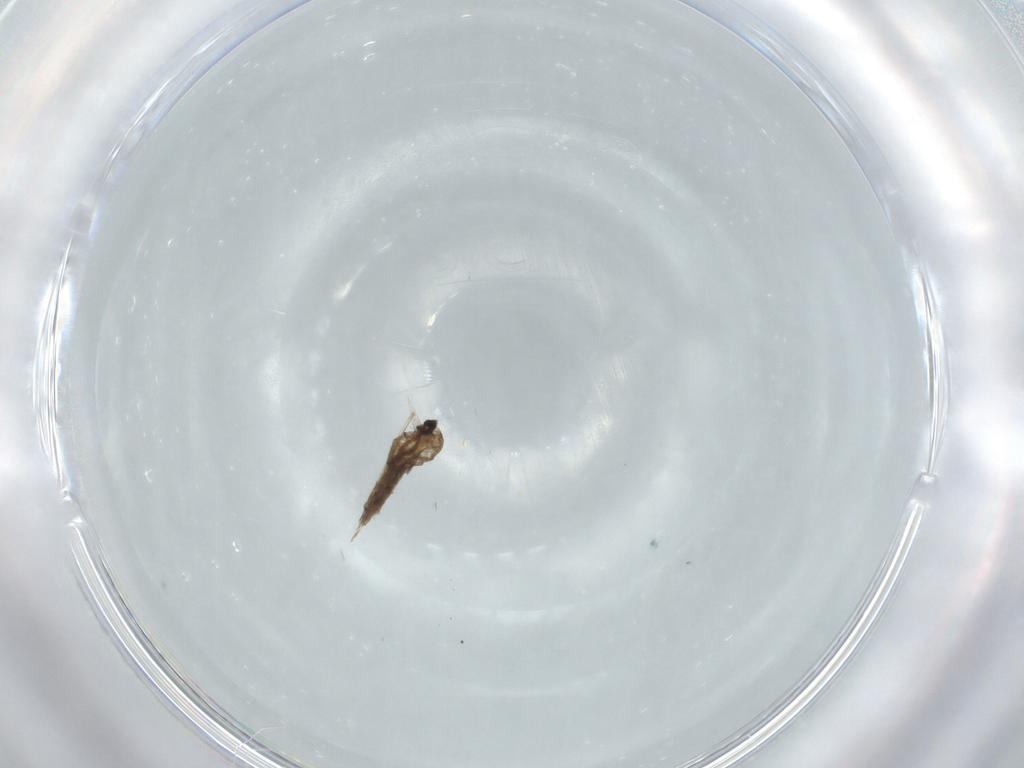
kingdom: Animalia
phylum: Arthropoda
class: Insecta
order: Diptera
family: Cecidomyiidae
